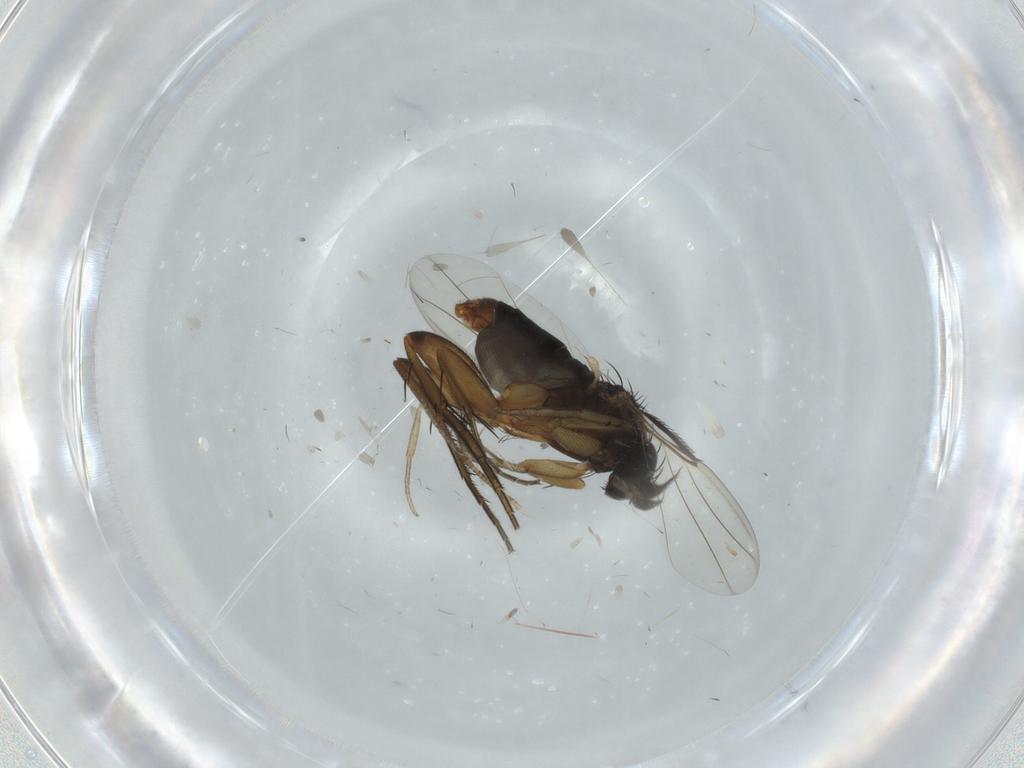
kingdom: Animalia
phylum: Arthropoda
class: Insecta
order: Diptera
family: Phoridae
